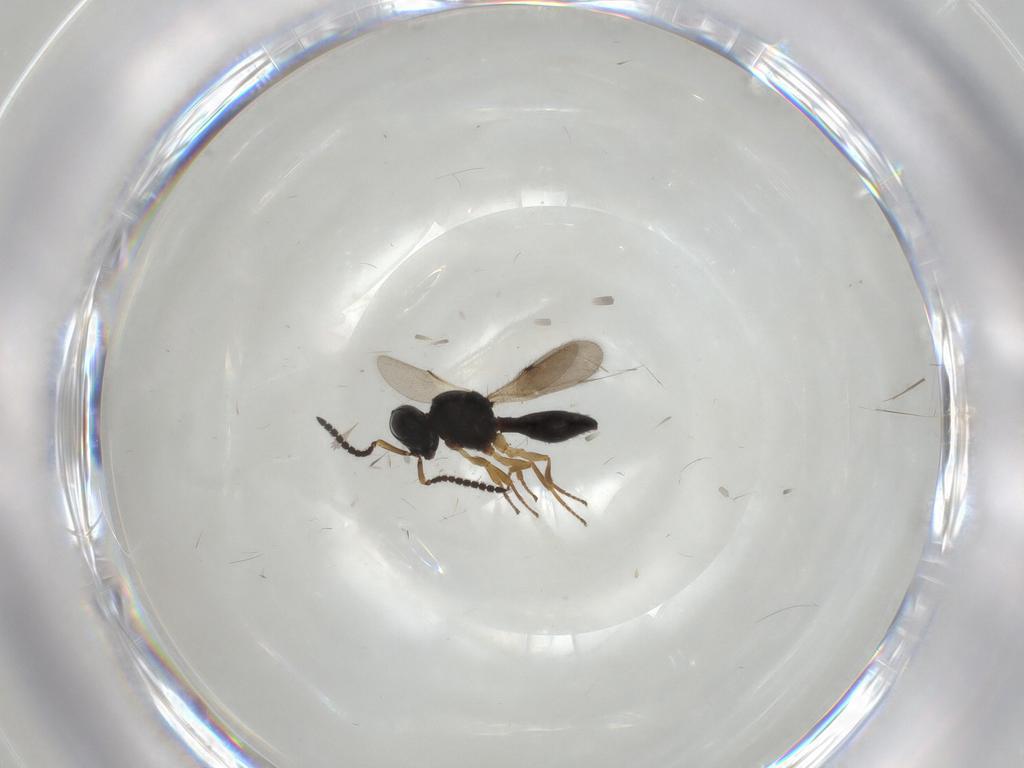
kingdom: Animalia
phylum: Arthropoda
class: Insecta
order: Hymenoptera
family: Scelionidae
